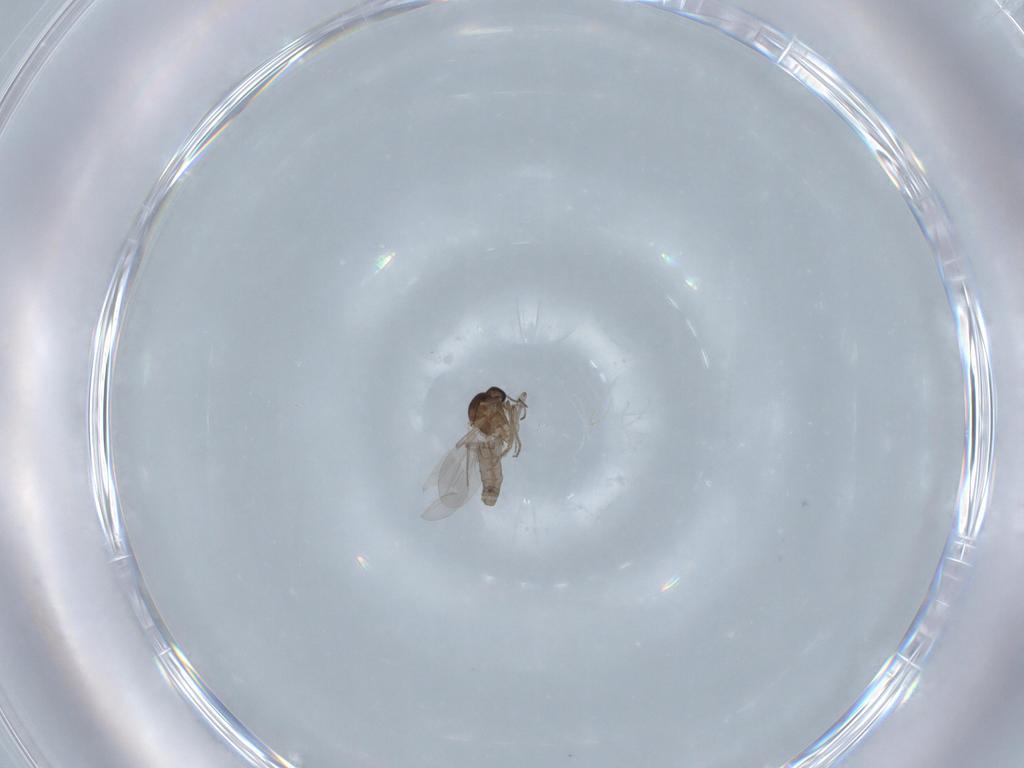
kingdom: Animalia
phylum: Arthropoda
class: Insecta
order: Diptera
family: Ceratopogonidae
